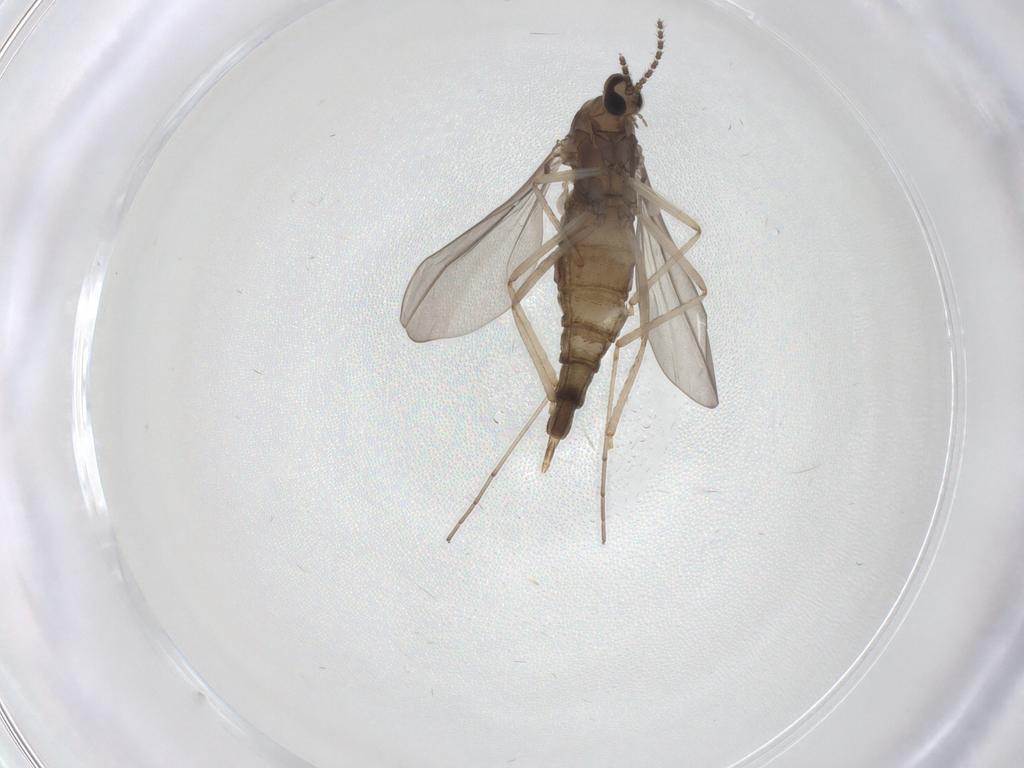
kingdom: Animalia
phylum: Arthropoda
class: Insecta
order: Diptera
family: Cecidomyiidae
